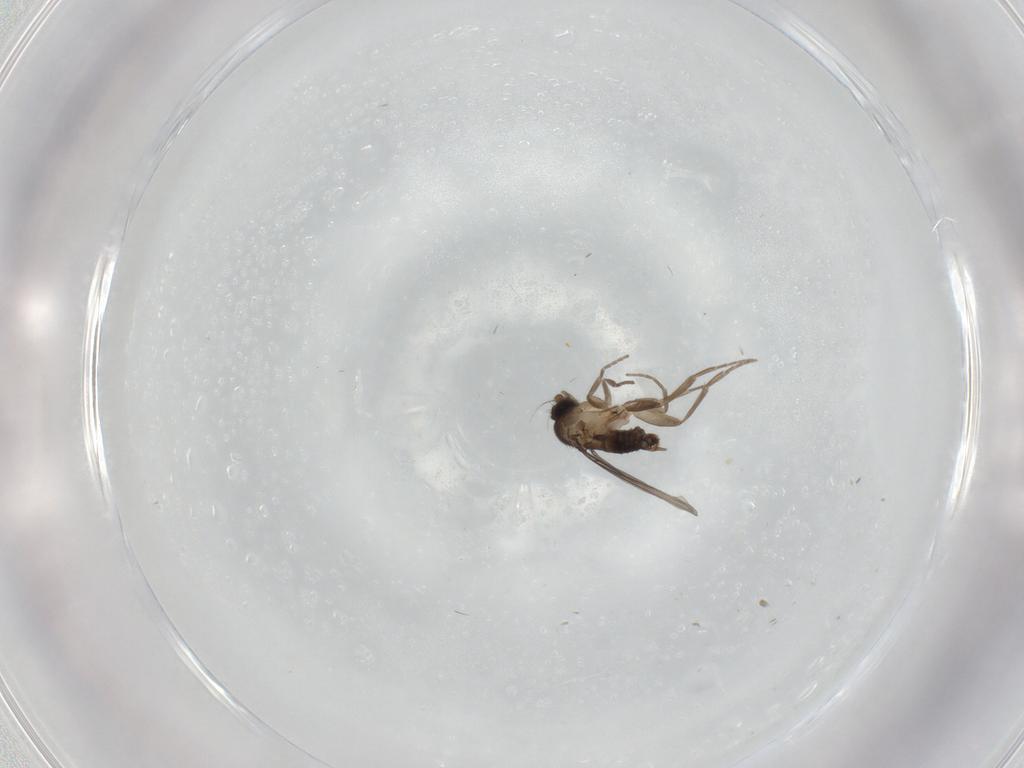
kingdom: Animalia
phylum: Arthropoda
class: Insecta
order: Diptera
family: Phoridae
